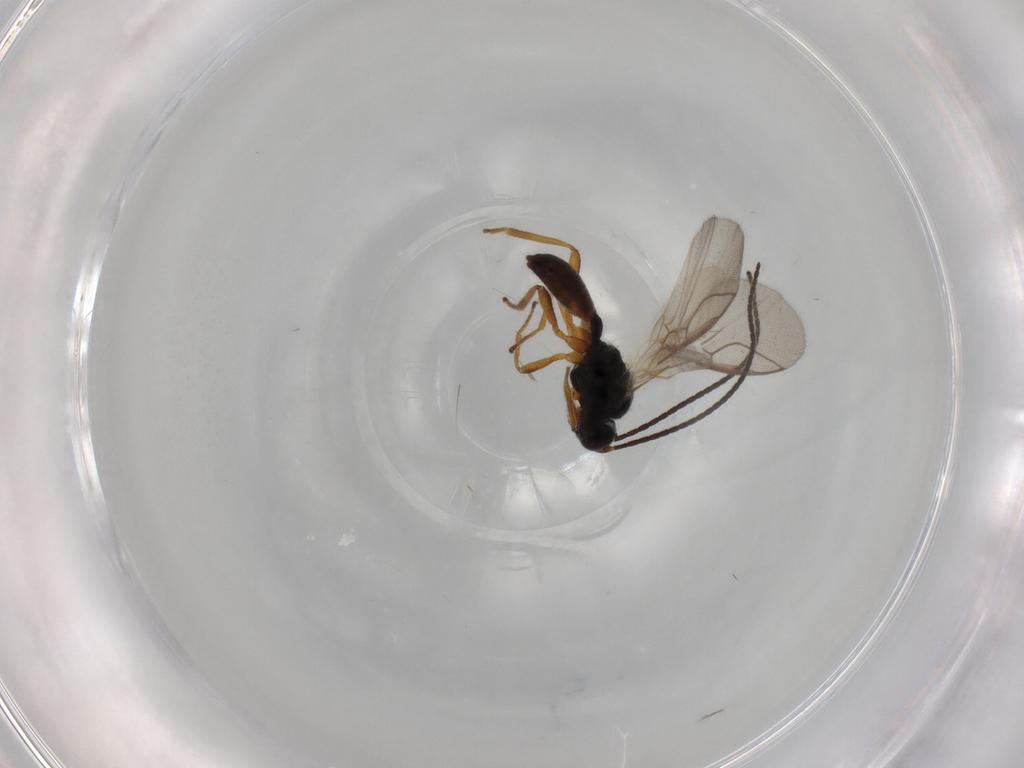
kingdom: Animalia
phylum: Arthropoda
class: Insecta
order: Hymenoptera
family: Braconidae
